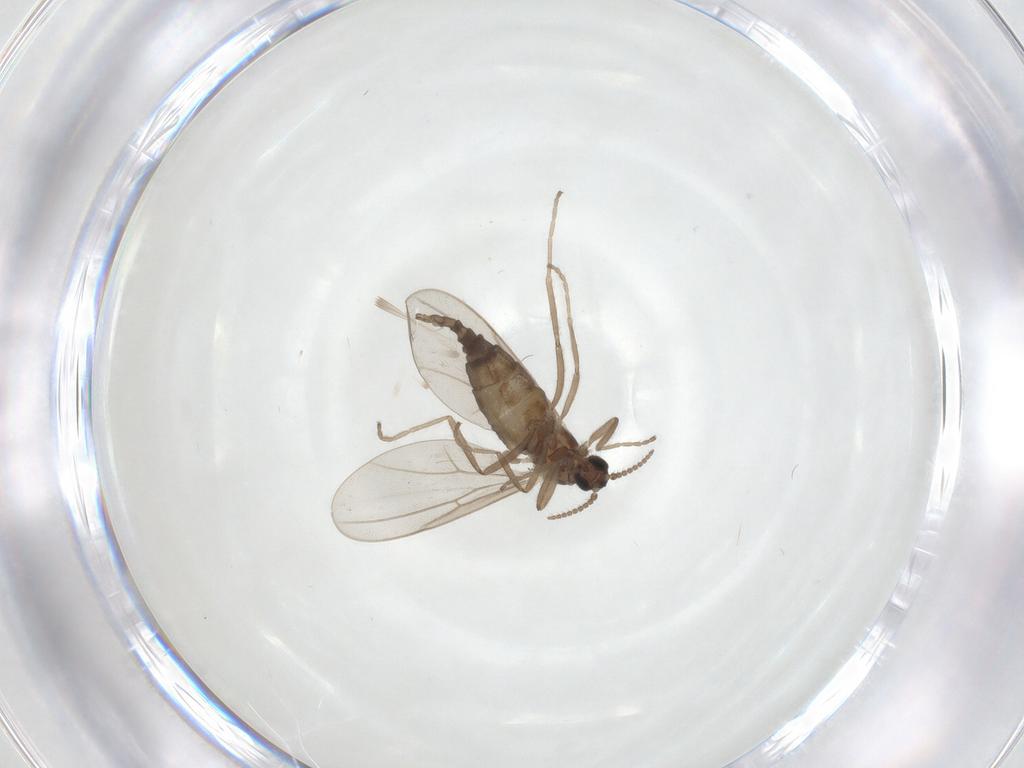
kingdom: Animalia
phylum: Arthropoda
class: Insecta
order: Diptera
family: Cecidomyiidae
